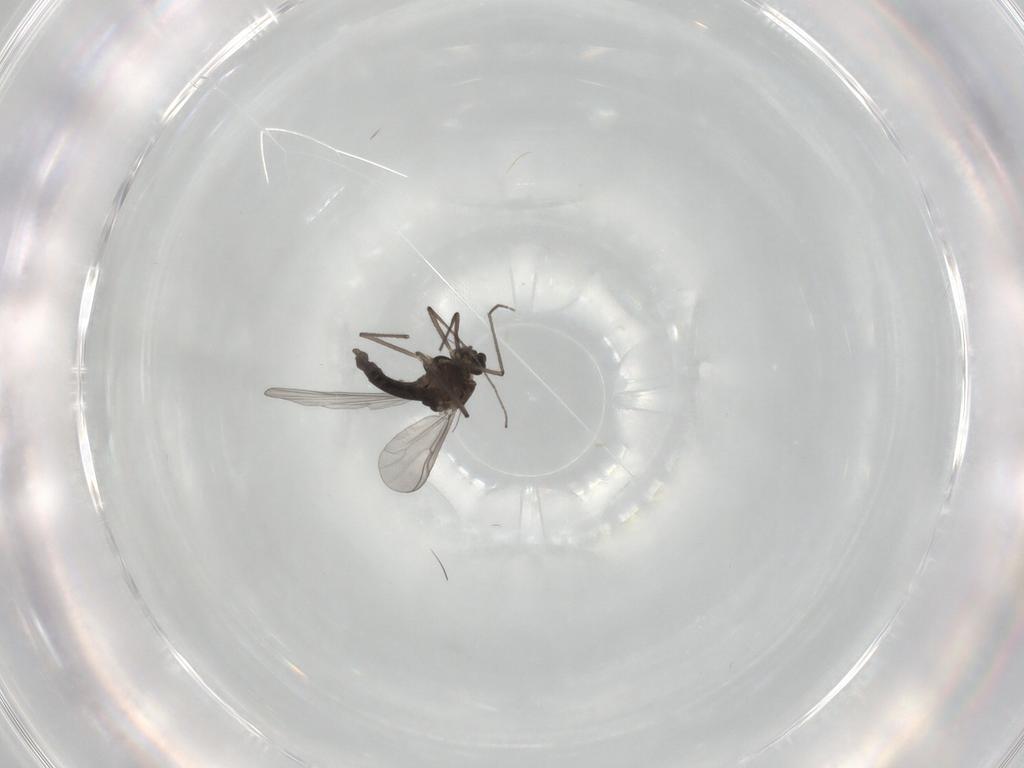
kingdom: Animalia
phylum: Arthropoda
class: Insecta
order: Diptera
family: Chironomidae
